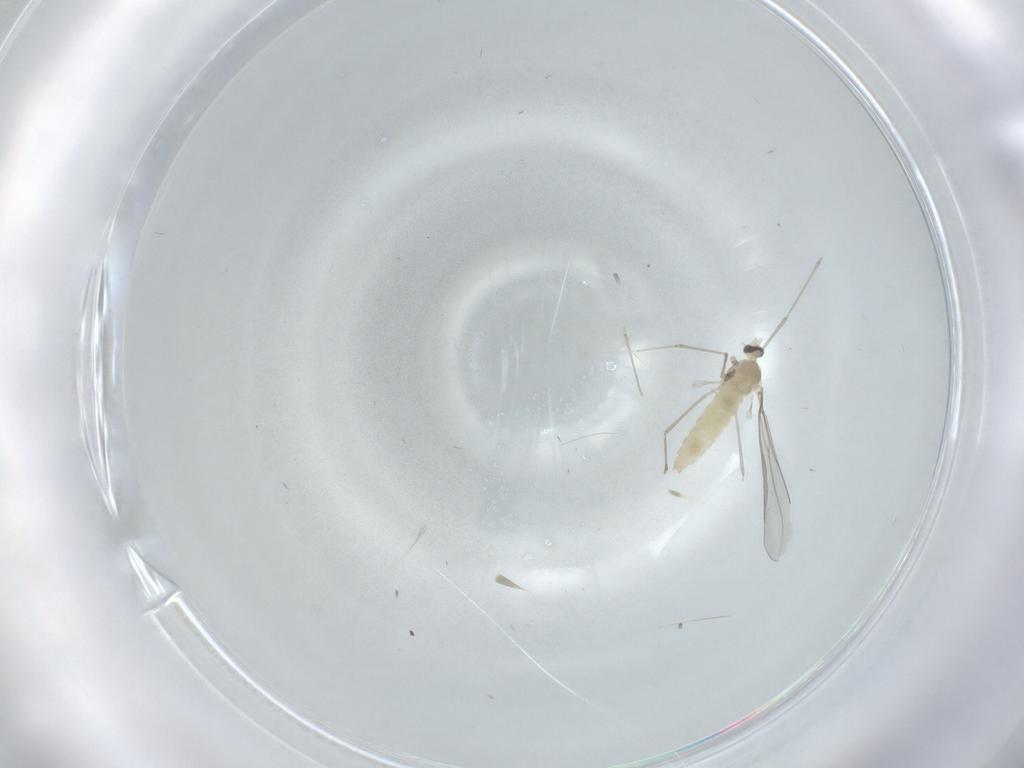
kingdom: Animalia
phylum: Arthropoda
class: Insecta
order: Diptera
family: Cecidomyiidae
